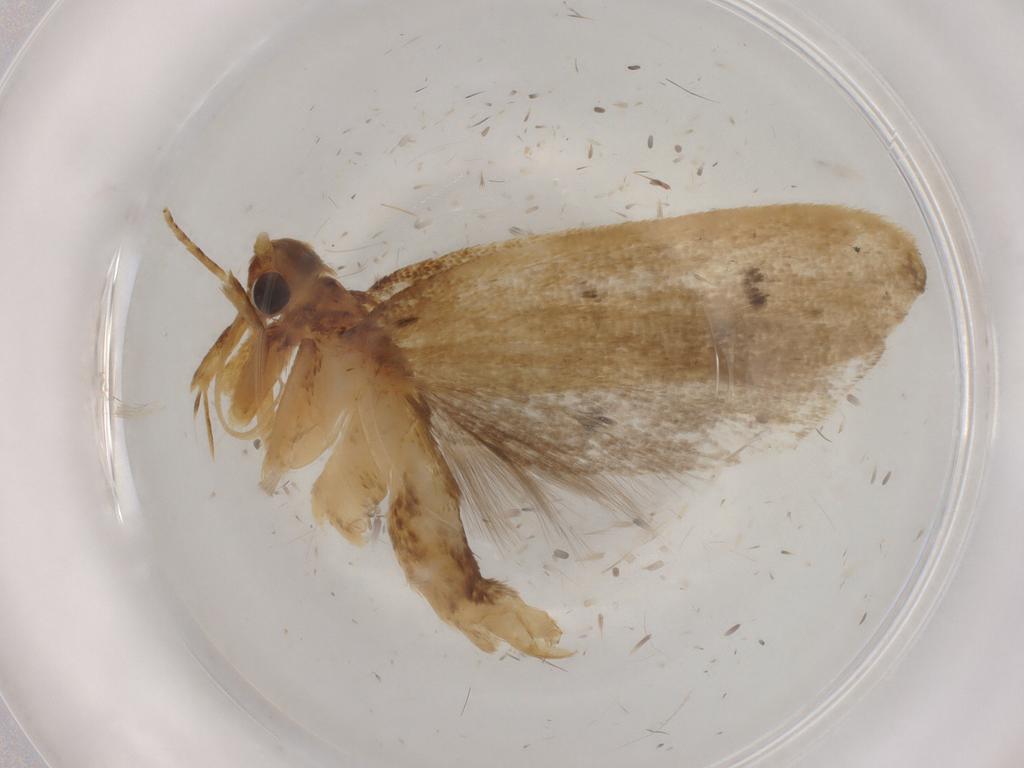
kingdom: Animalia
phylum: Arthropoda
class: Insecta
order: Lepidoptera
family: Lecithoceridae
